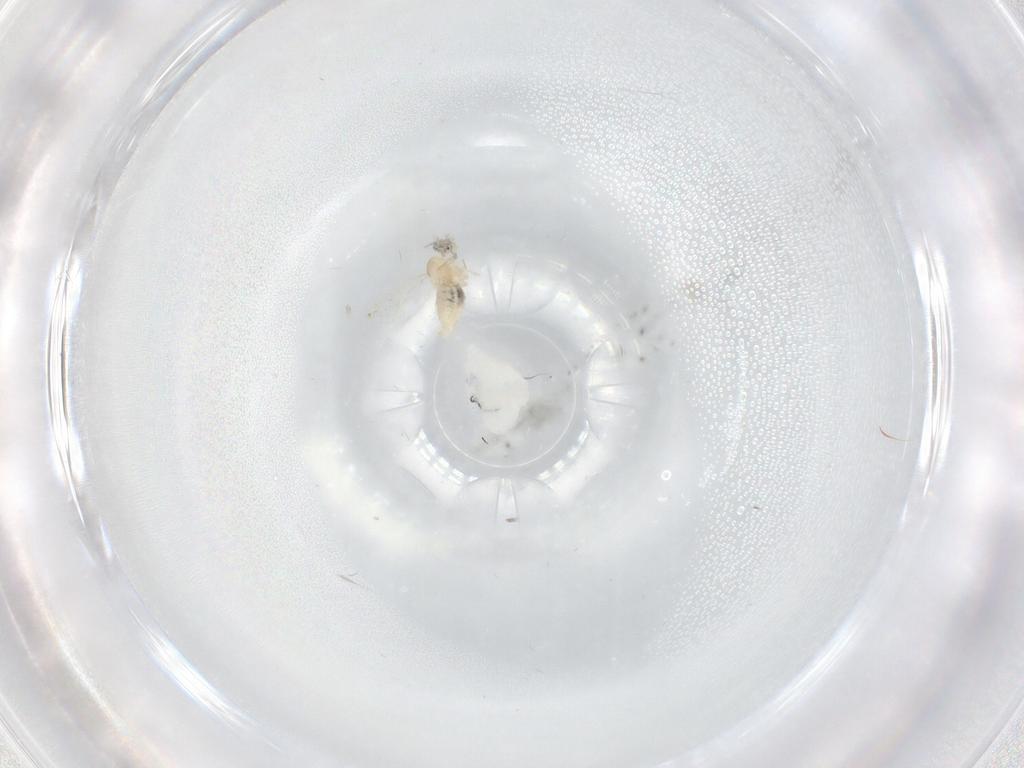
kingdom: Animalia
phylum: Arthropoda
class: Insecta
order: Diptera
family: Cecidomyiidae
